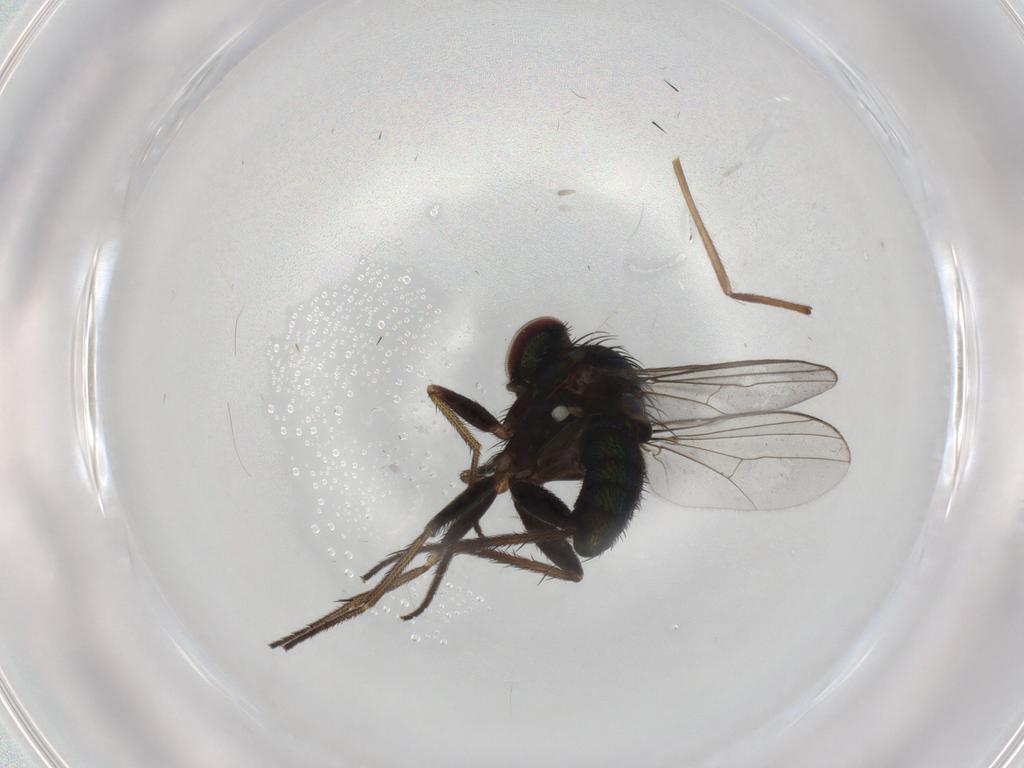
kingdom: Animalia
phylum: Arthropoda
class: Insecta
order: Diptera
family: Dolichopodidae
